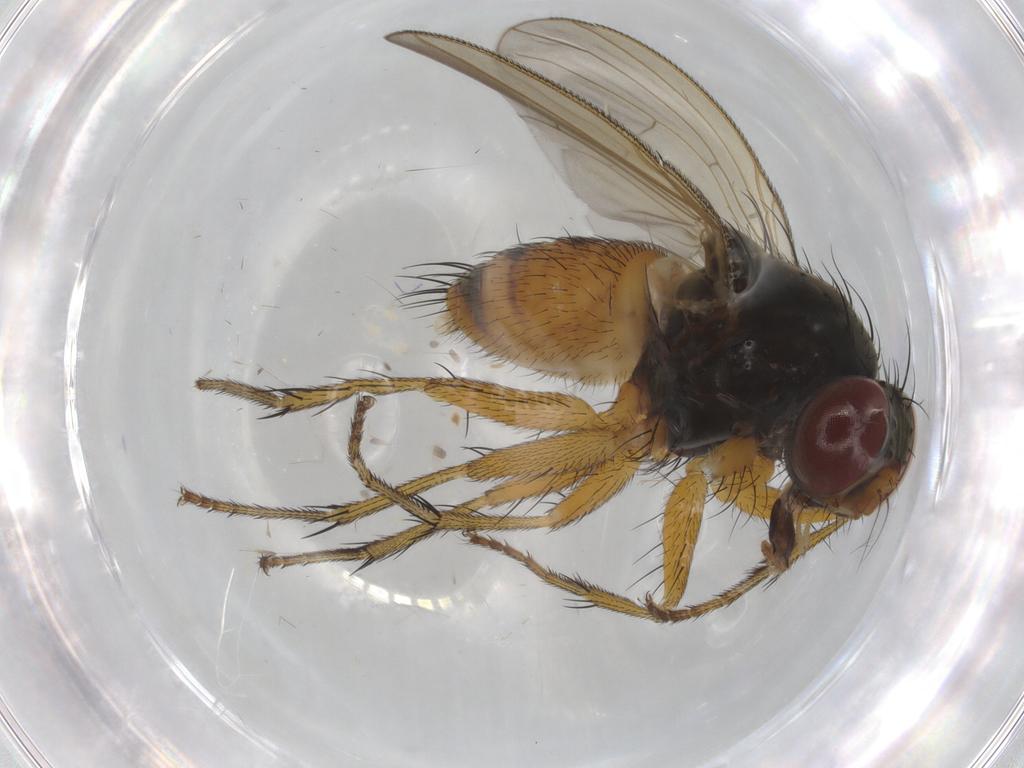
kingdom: Animalia
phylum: Arthropoda
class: Insecta
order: Diptera
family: Muscidae
